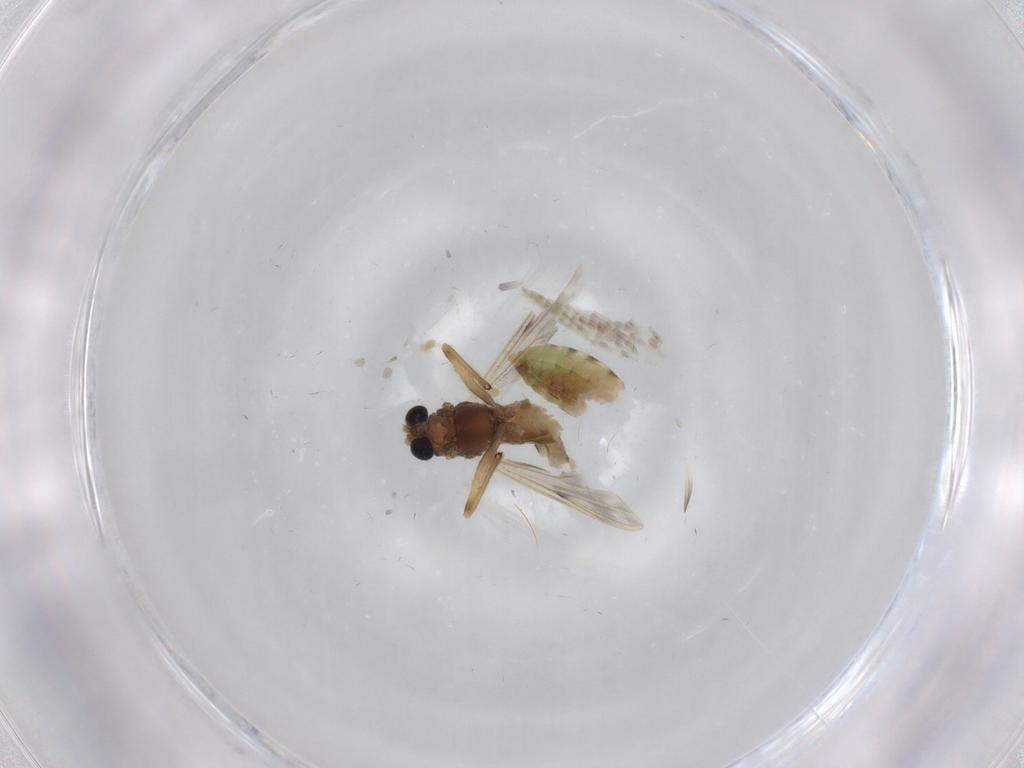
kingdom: Animalia
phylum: Arthropoda
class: Insecta
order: Diptera
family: Chironomidae
